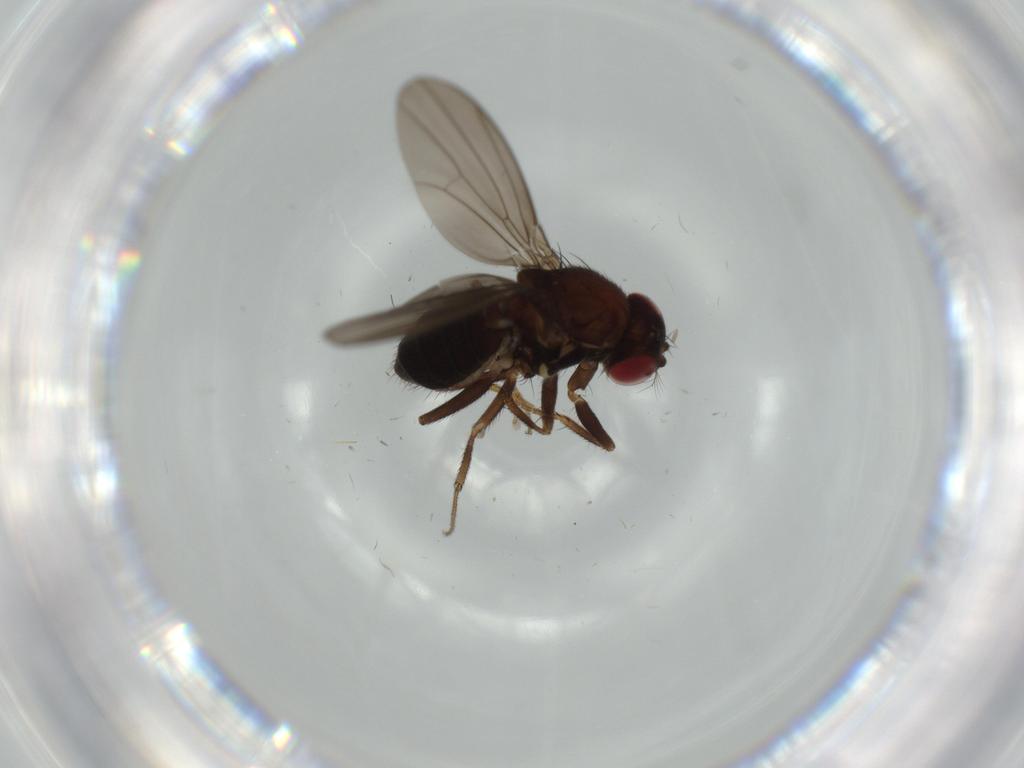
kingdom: Animalia
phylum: Arthropoda
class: Insecta
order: Diptera
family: Drosophilidae
